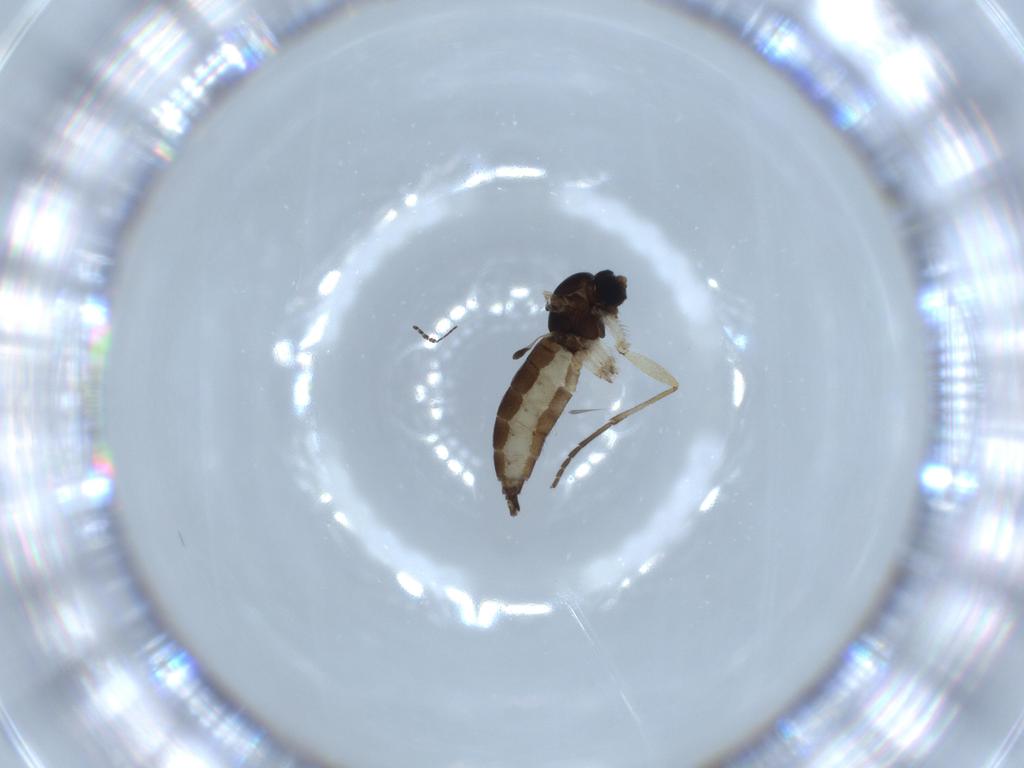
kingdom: Animalia
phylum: Arthropoda
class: Insecta
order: Diptera
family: Sciaridae
